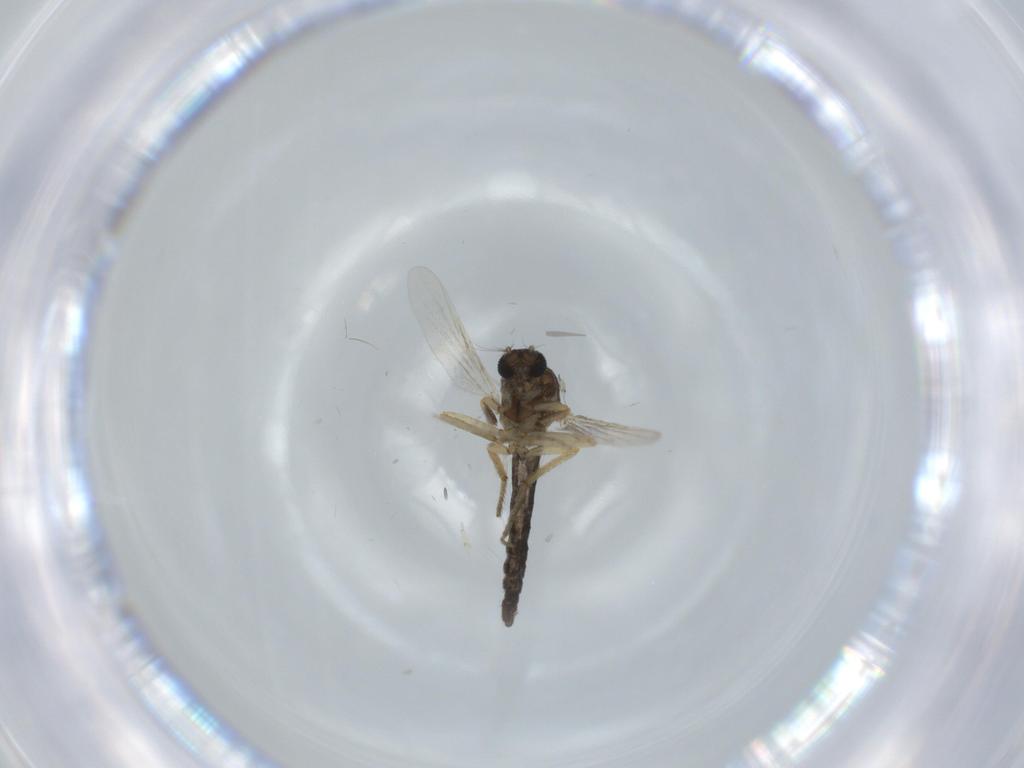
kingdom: Animalia
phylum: Arthropoda
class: Insecta
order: Diptera
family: Ceratopogonidae
